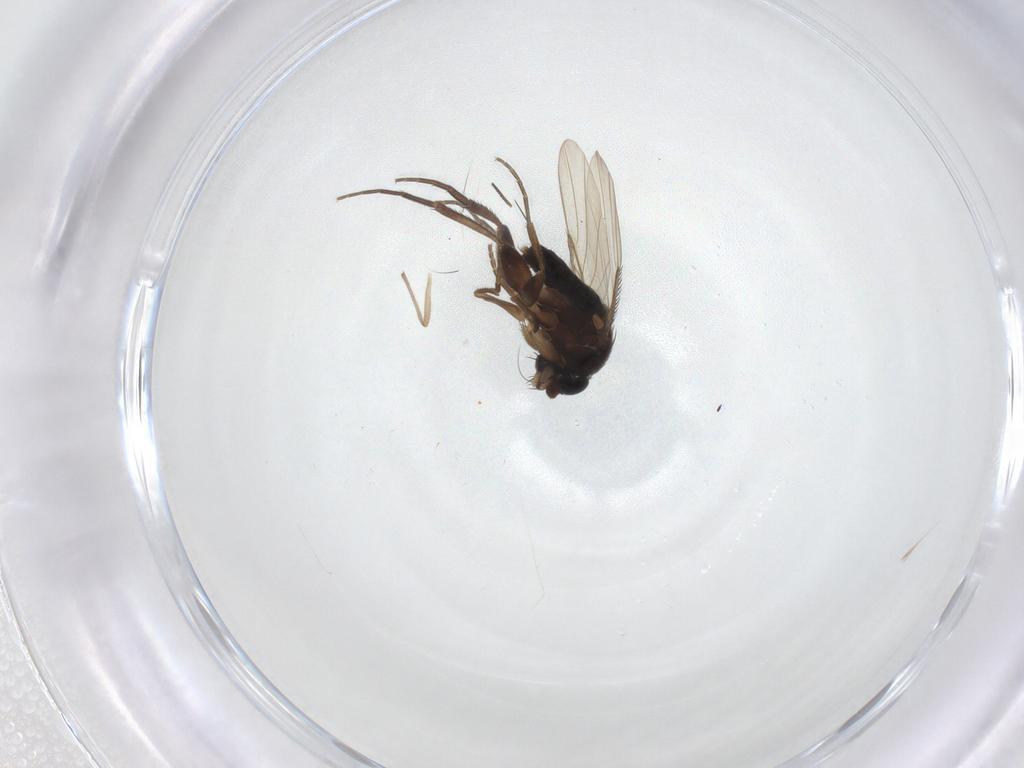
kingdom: Animalia
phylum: Arthropoda
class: Insecta
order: Diptera
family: Phoridae
